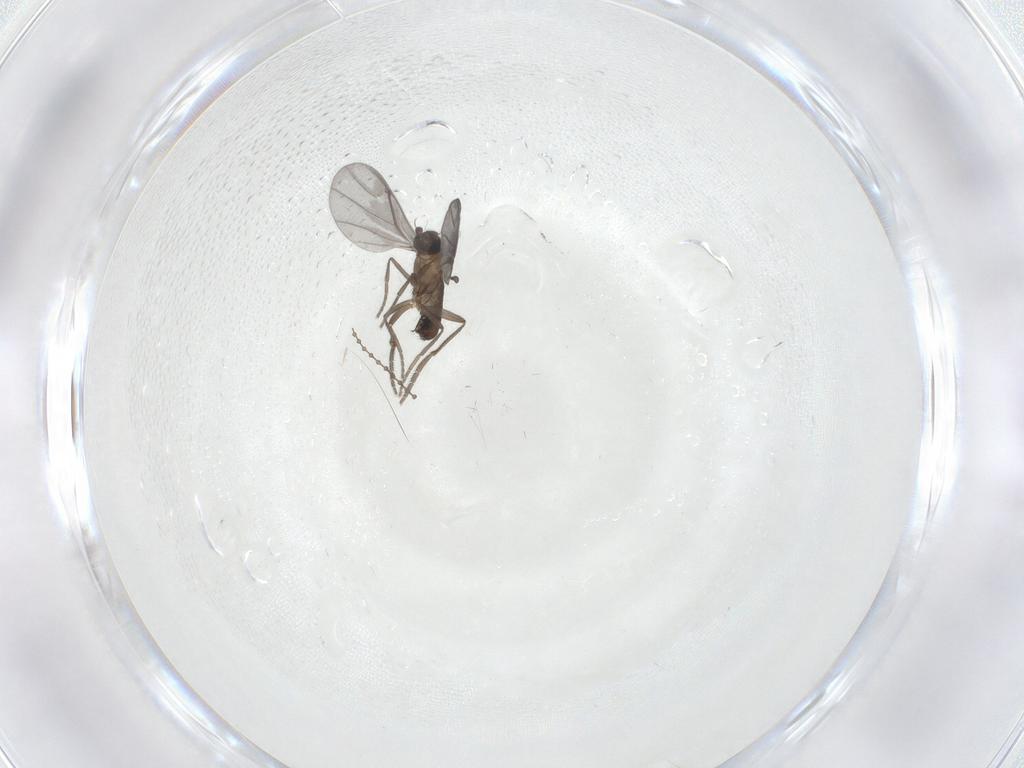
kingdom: Animalia
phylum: Arthropoda
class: Insecta
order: Diptera
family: Phoridae
